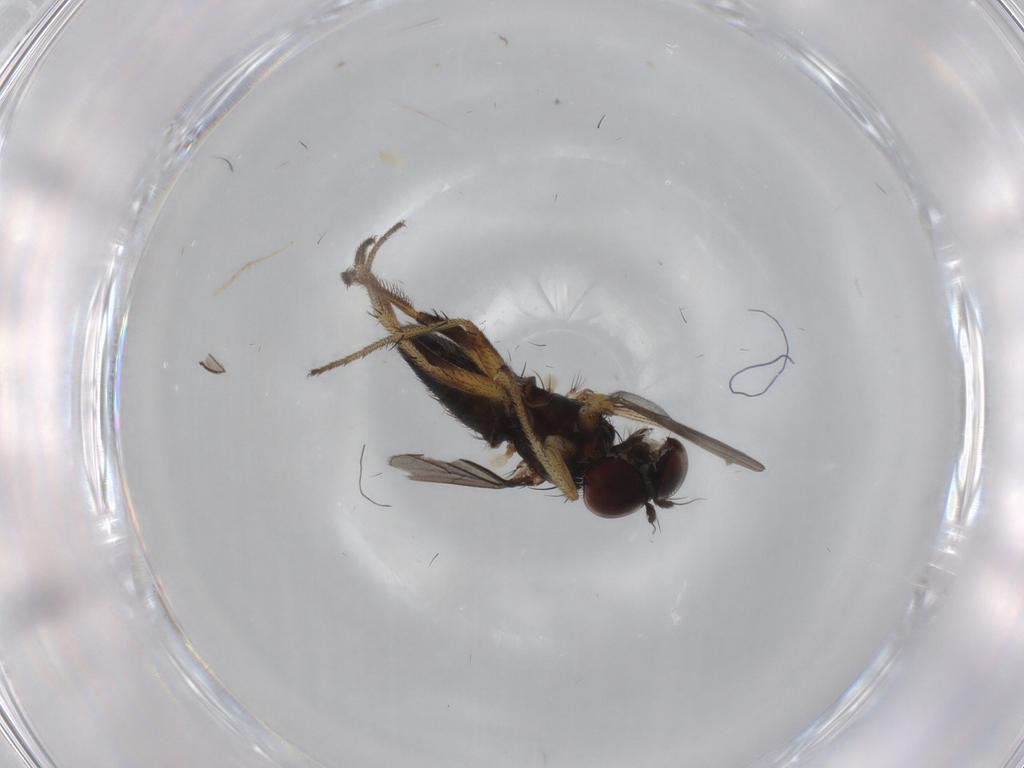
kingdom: Animalia
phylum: Arthropoda
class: Insecta
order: Diptera
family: Dolichopodidae
